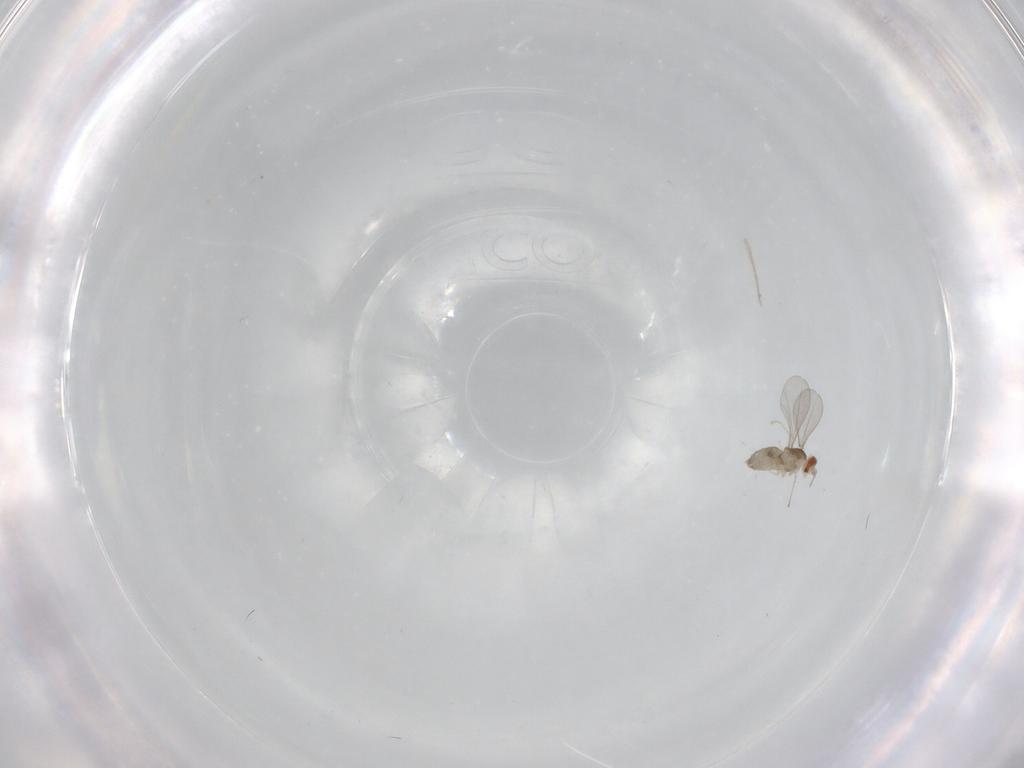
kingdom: Animalia
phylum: Arthropoda
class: Insecta
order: Diptera
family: Cecidomyiidae
